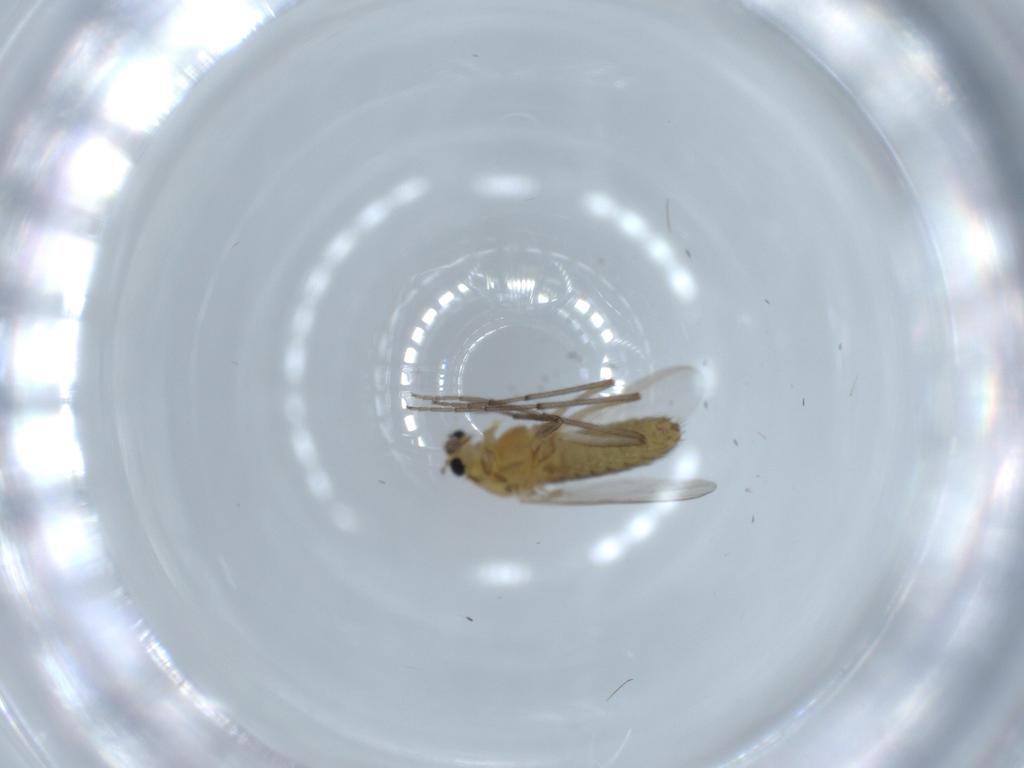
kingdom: Animalia
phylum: Arthropoda
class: Insecta
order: Diptera
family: Chironomidae
